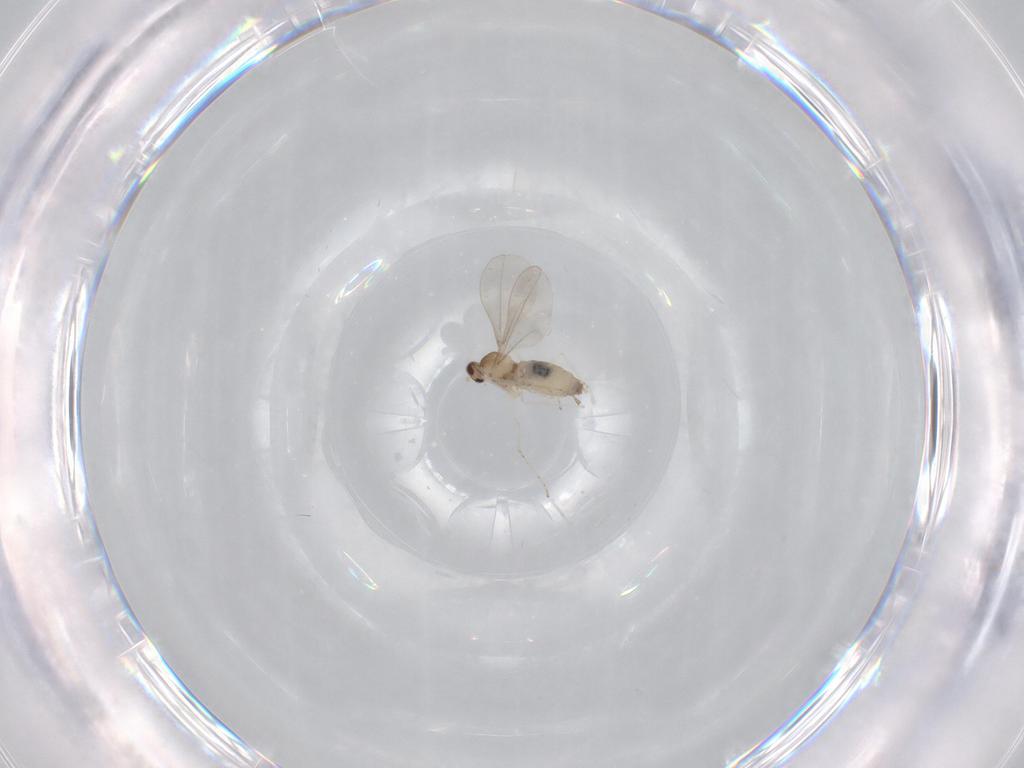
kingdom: Animalia
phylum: Arthropoda
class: Insecta
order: Diptera
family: Cecidomyiidae
